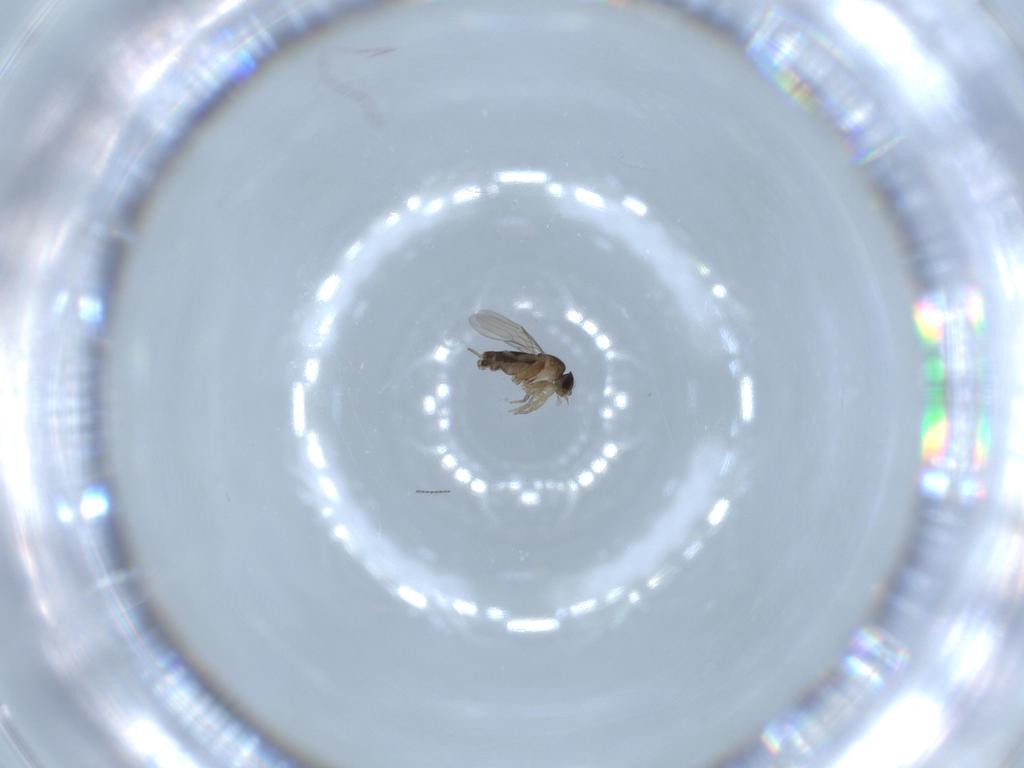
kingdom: Animalia
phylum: Arthropoda
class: Insecta
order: Diptera
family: Phoridae
